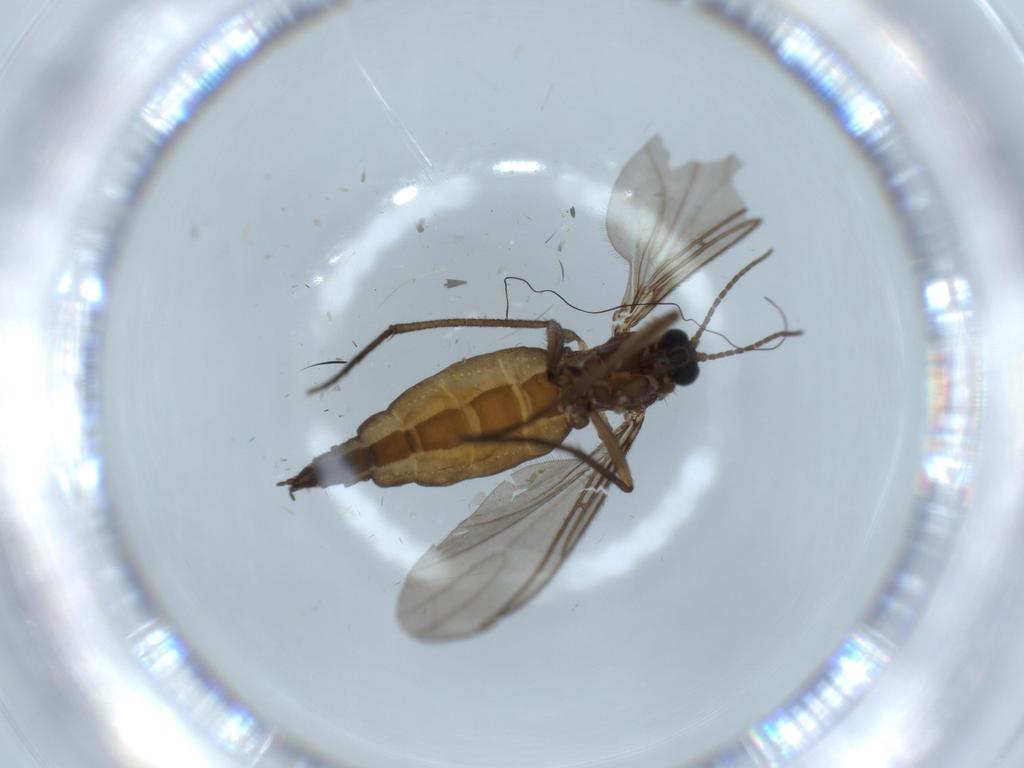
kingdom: Animalia
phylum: Arthropoda
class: Insecta
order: Diptera
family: Sciaridae
